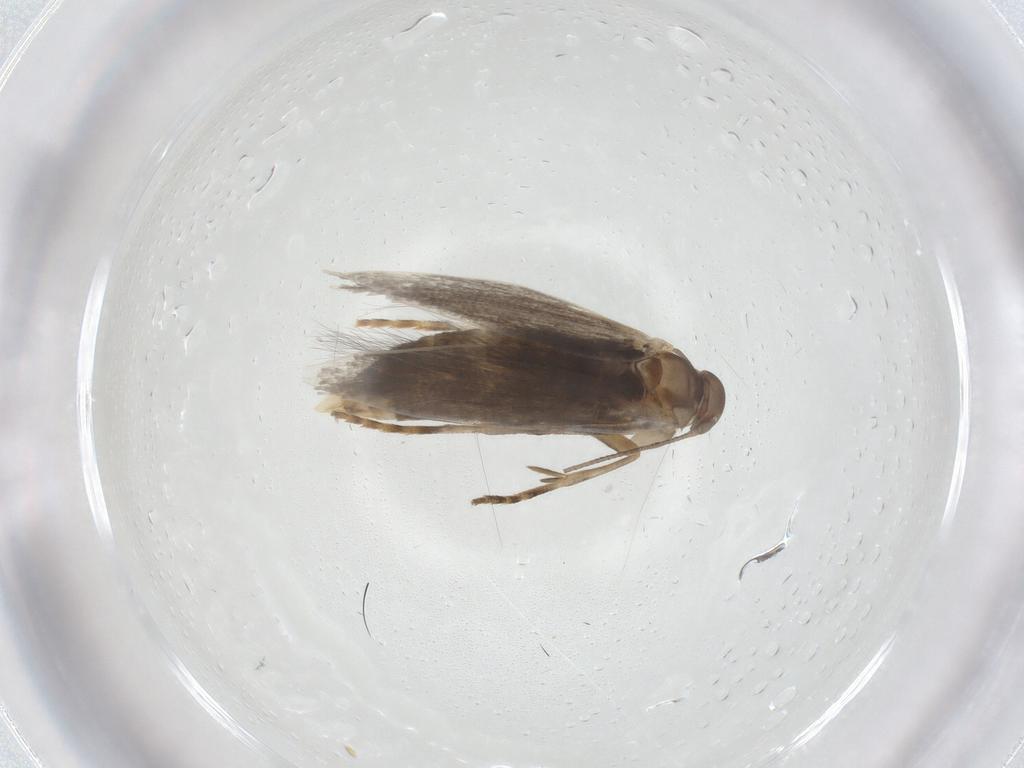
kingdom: Animalia
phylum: Arthropoda
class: Insecta
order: Lepidoptera
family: Elachistidae
